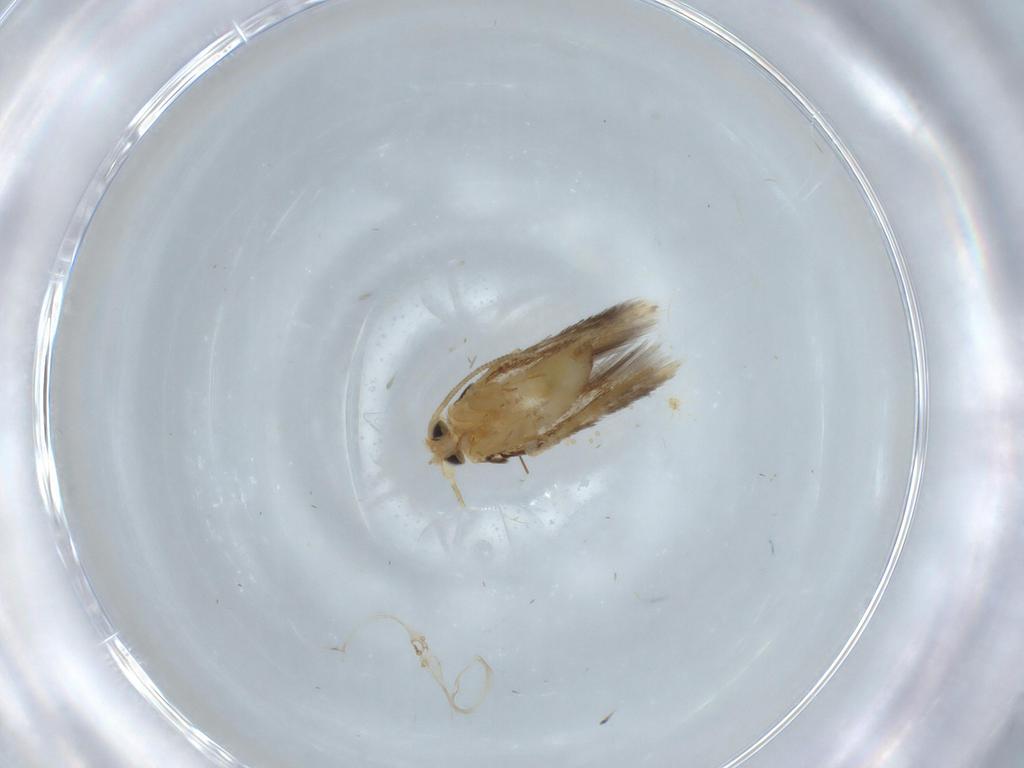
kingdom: Animalia
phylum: Arthropoda
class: Insecta
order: Lepidoptera
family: Nepticulidae
